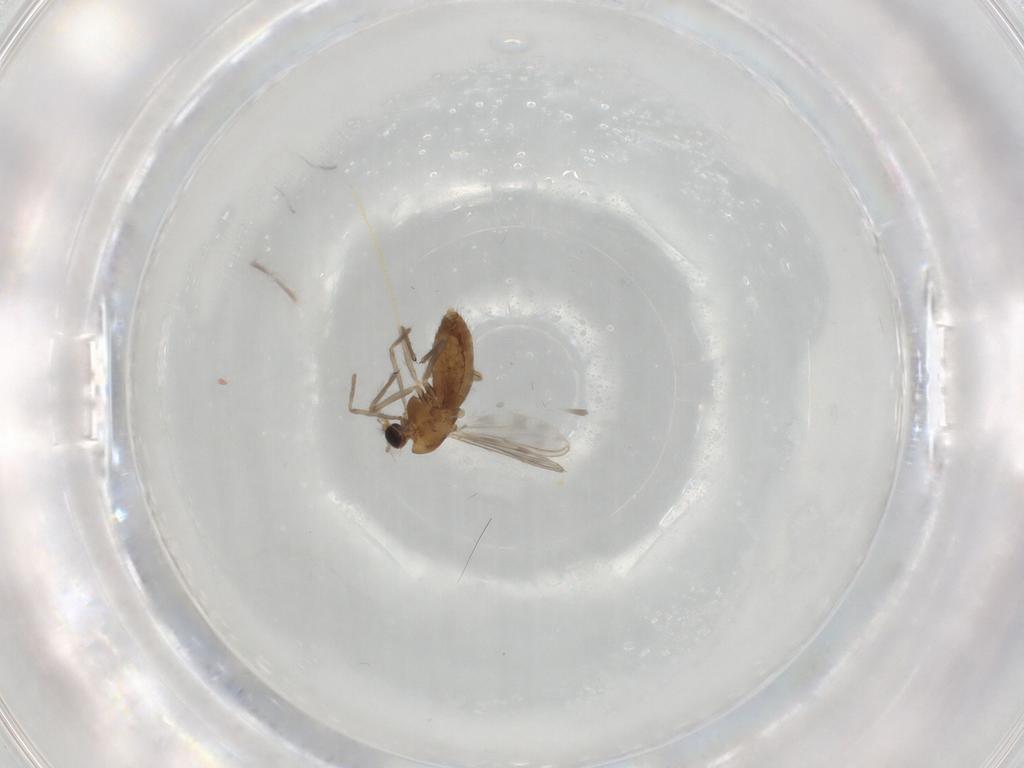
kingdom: Animalia
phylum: Arthropoda
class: Insecta
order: Diptera
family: Chironomidae
